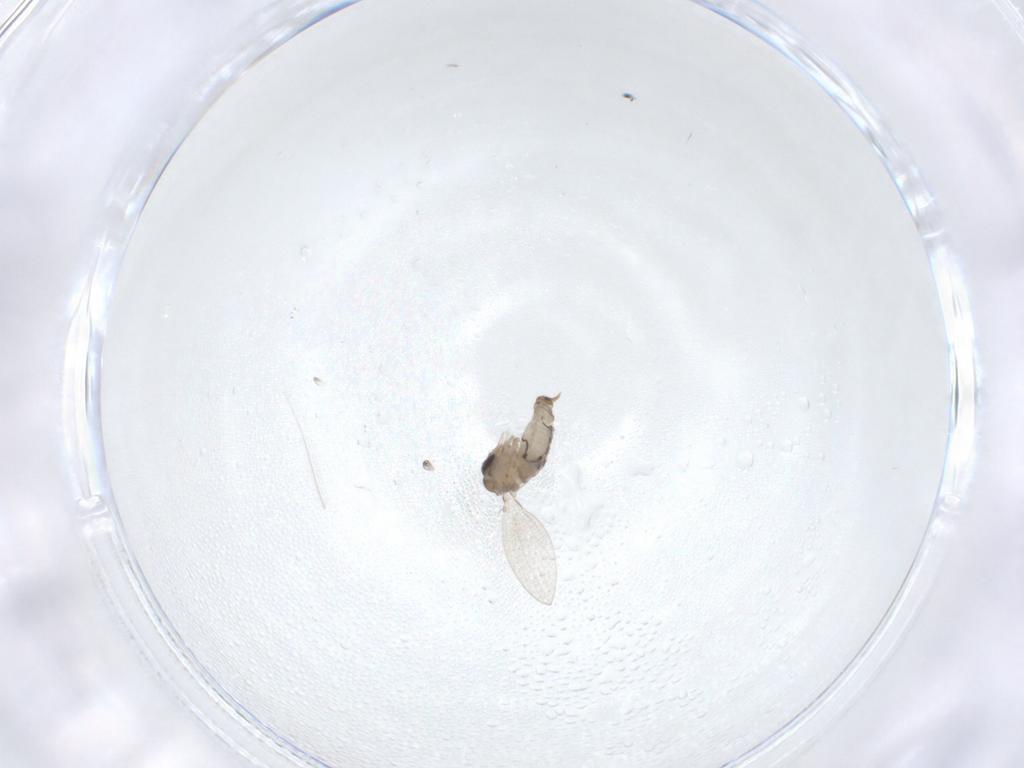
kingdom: Animalia
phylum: Arthropoda
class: Insecta
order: Diptera
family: Psychodidae
